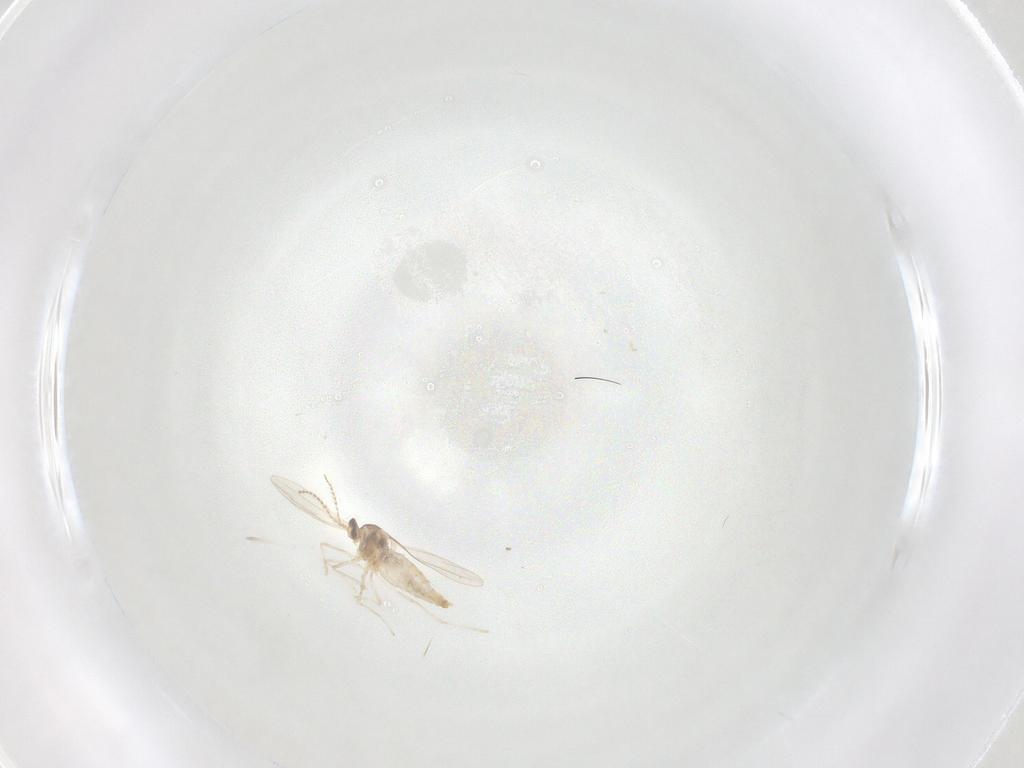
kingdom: Animalia
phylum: Arthropoda
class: Insecta
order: Diptera
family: Cecidomyiidae
